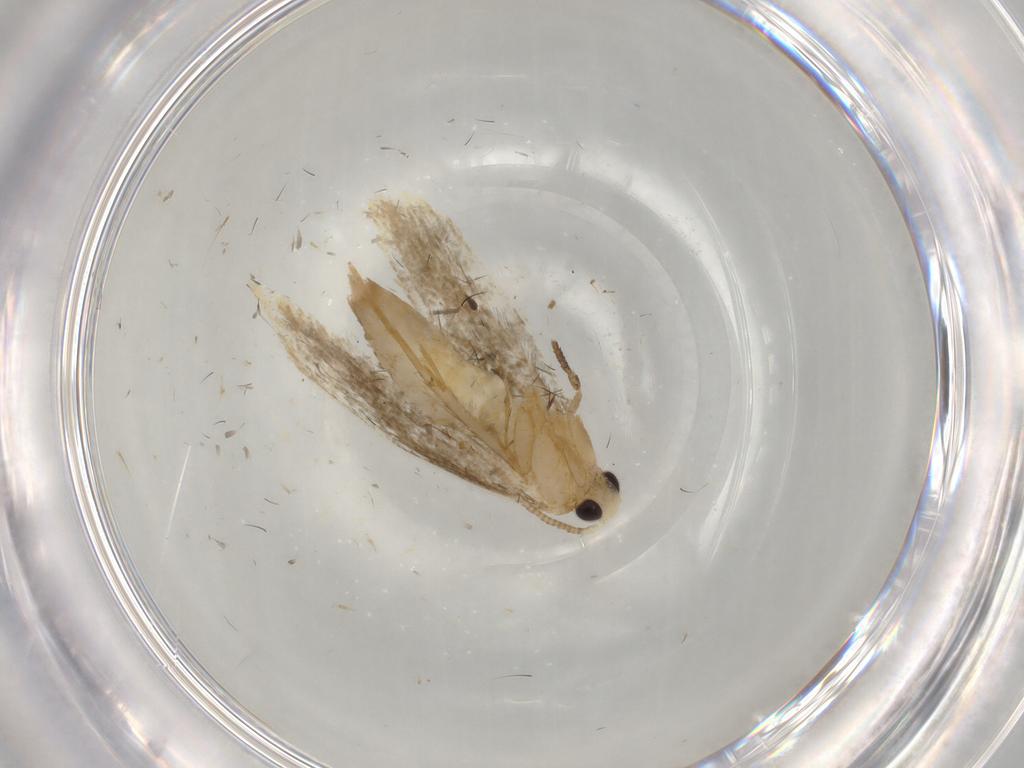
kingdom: Animalia
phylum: Arthropoda
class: Insecta
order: Lepidoptera
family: Tineidae
